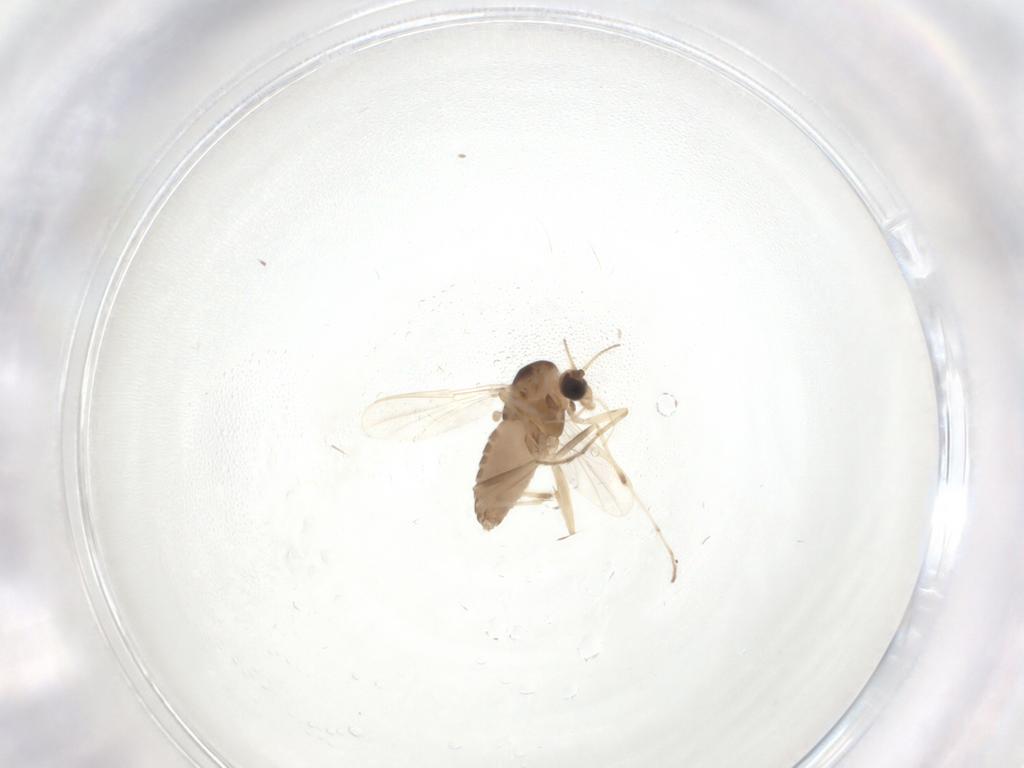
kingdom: Animalia
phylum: Arthropoda
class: Insecta
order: Diptera
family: Chironomidae
